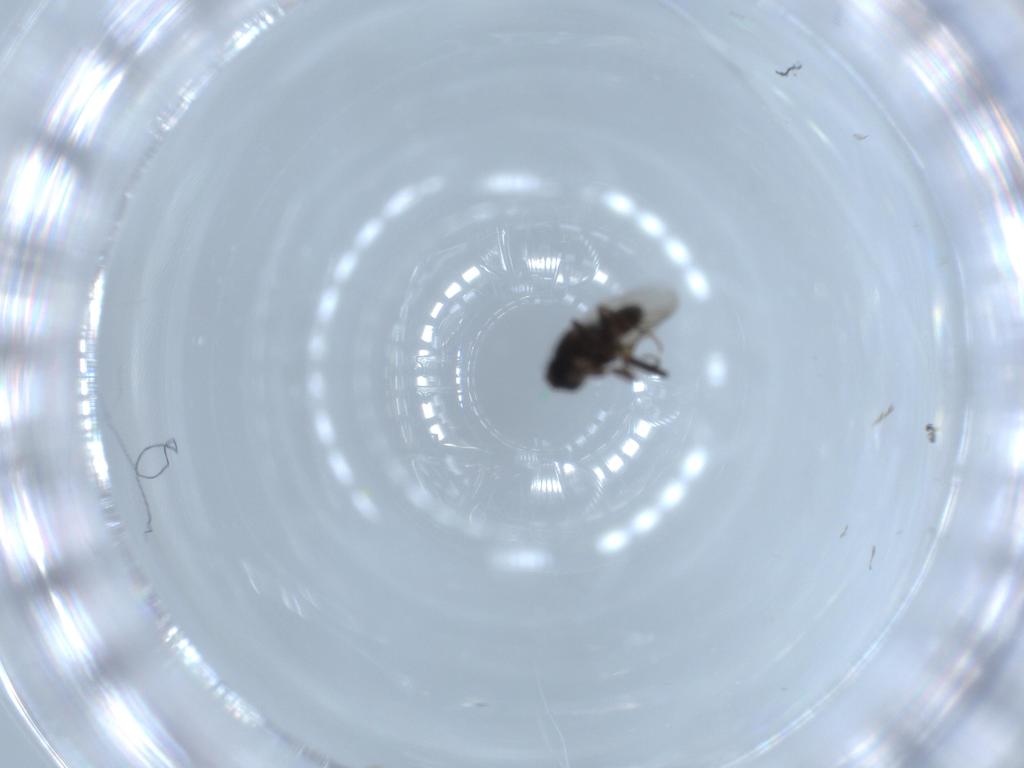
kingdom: Animalia
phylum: Arthropoda
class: Insecta
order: Diptera
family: Sphaeroceridae
